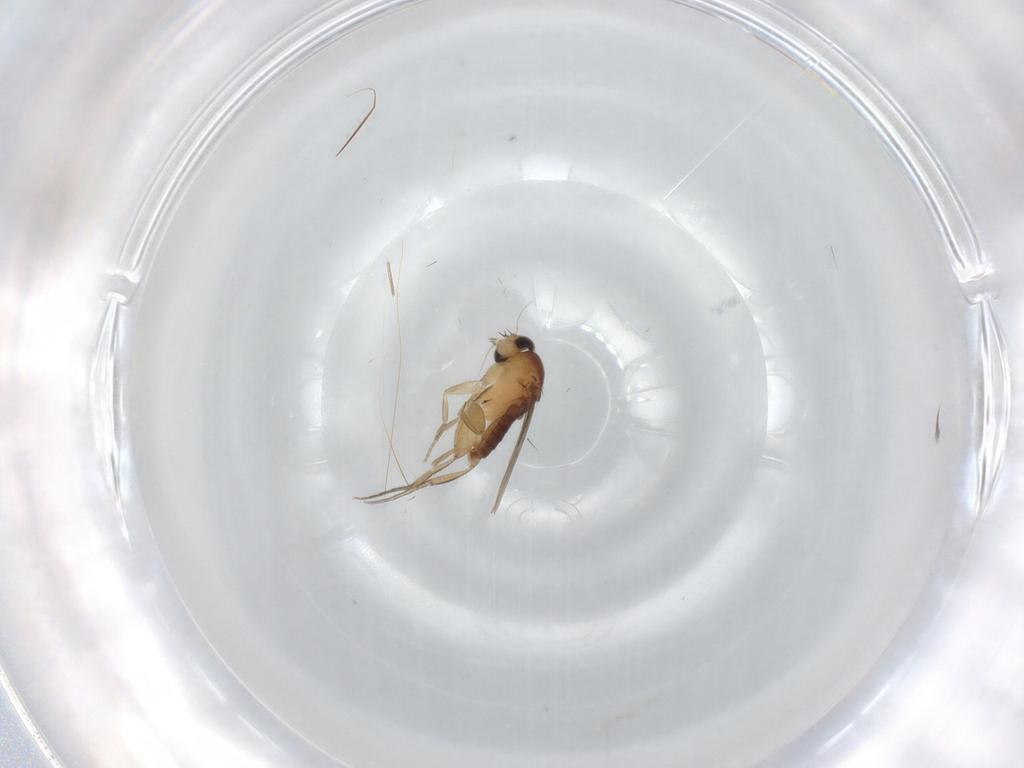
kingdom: Animalia
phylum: Arthropoda
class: Insecta
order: Diptera
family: Phoridae
